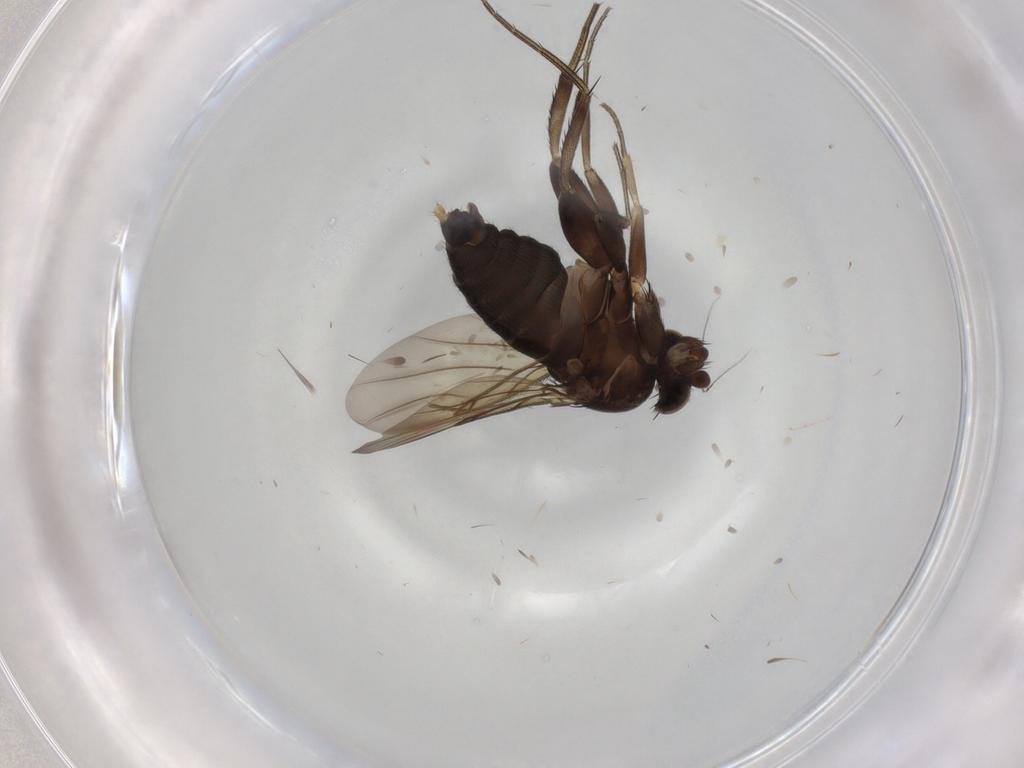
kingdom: Animalia
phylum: Arthropoda
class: Insecta
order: Diptera
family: Phoridae
